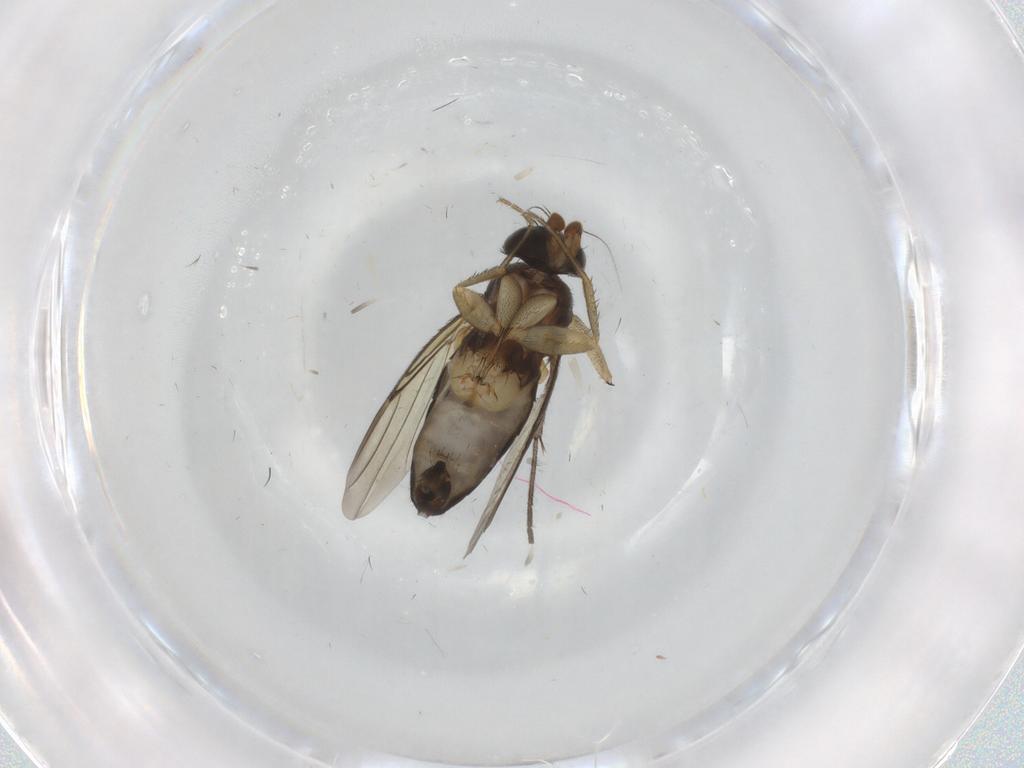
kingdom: Animalia
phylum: Arthropoda
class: Insecta
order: Diptera
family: Phoridae
